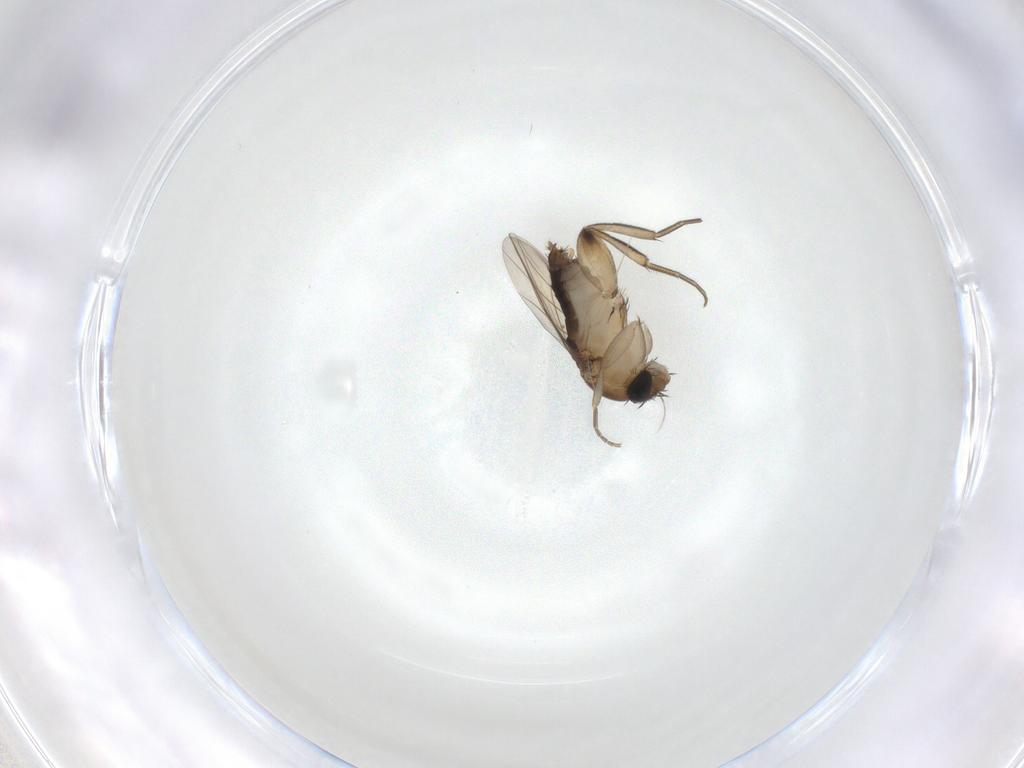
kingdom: Animalia
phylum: Arthropoda
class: Insecta
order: Diptera
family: Phoridae
